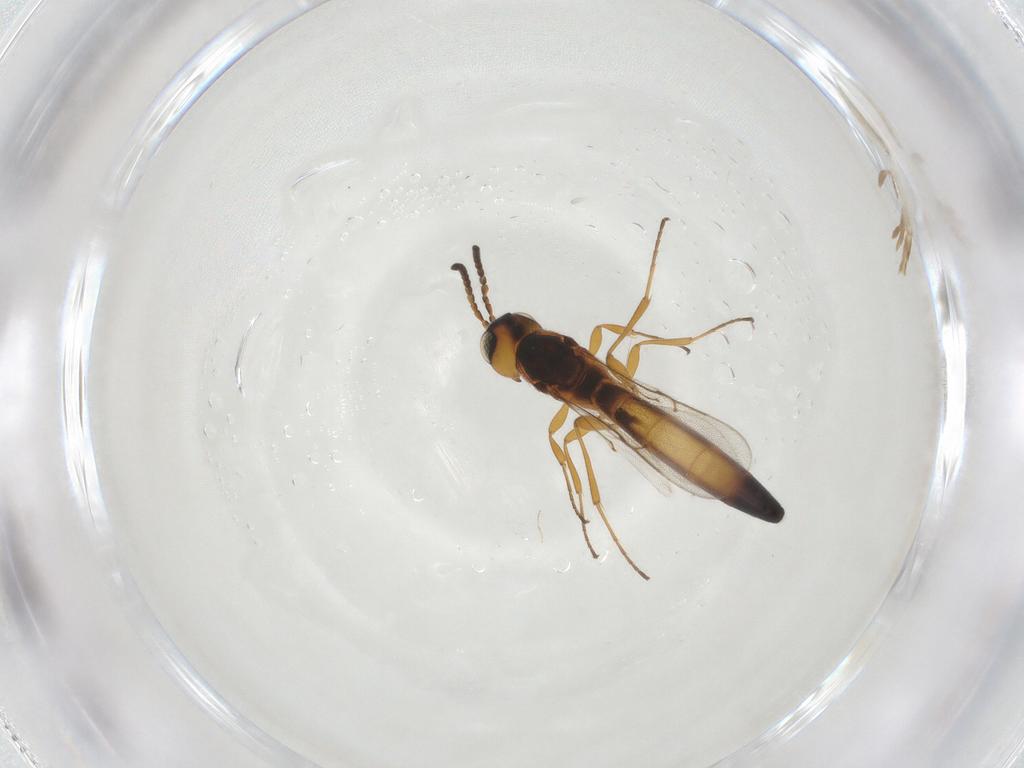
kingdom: Animalia
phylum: Arthropoda
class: Insecta
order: Hymenoptera
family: Scelionidae
